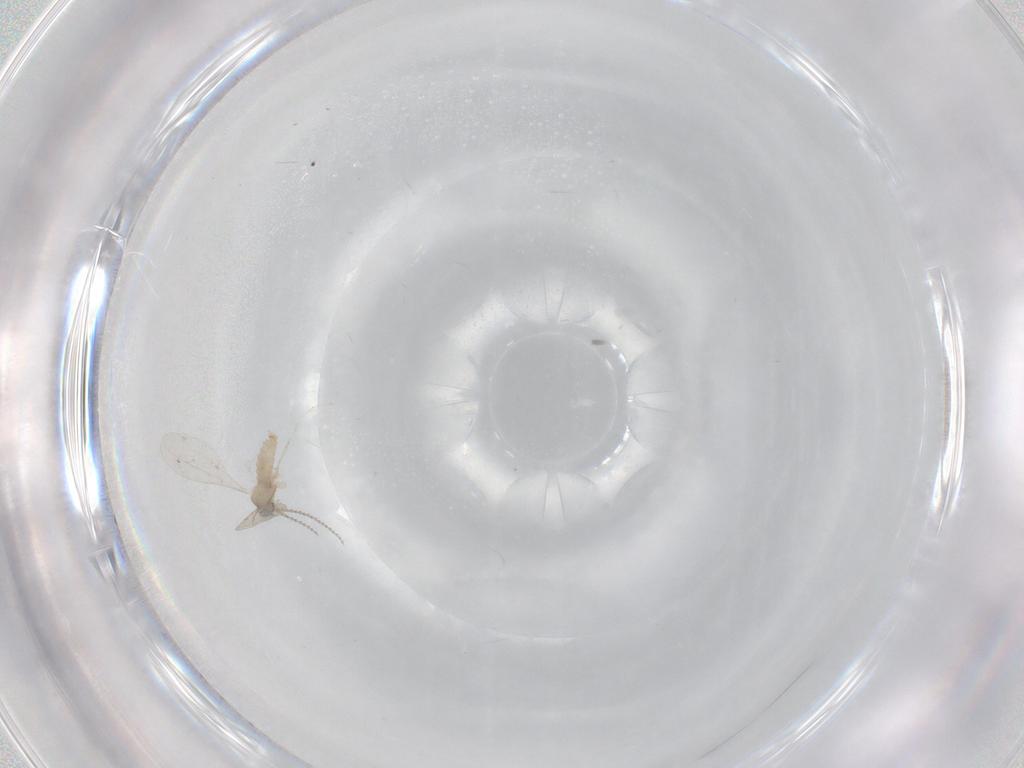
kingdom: Animalia
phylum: Arthropoda
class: Insecta
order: Diptera
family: Cecidomyiidae
